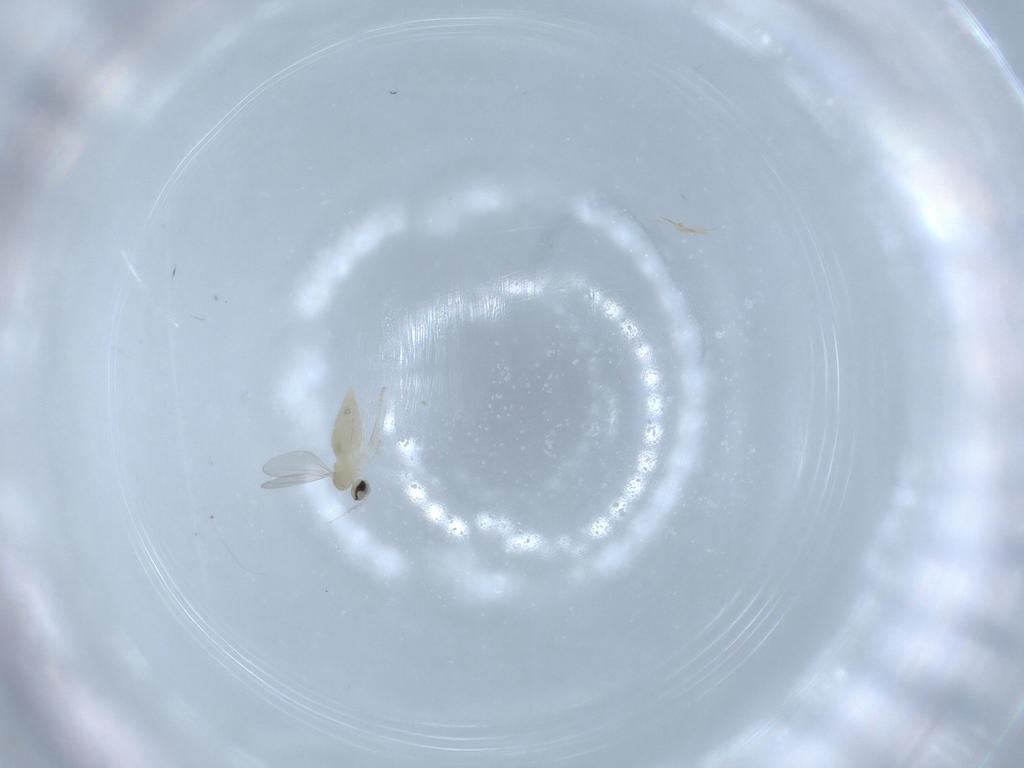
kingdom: Animalia
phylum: Arthropoda
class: Insecta
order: Diptera
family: Cecidomyiidae
